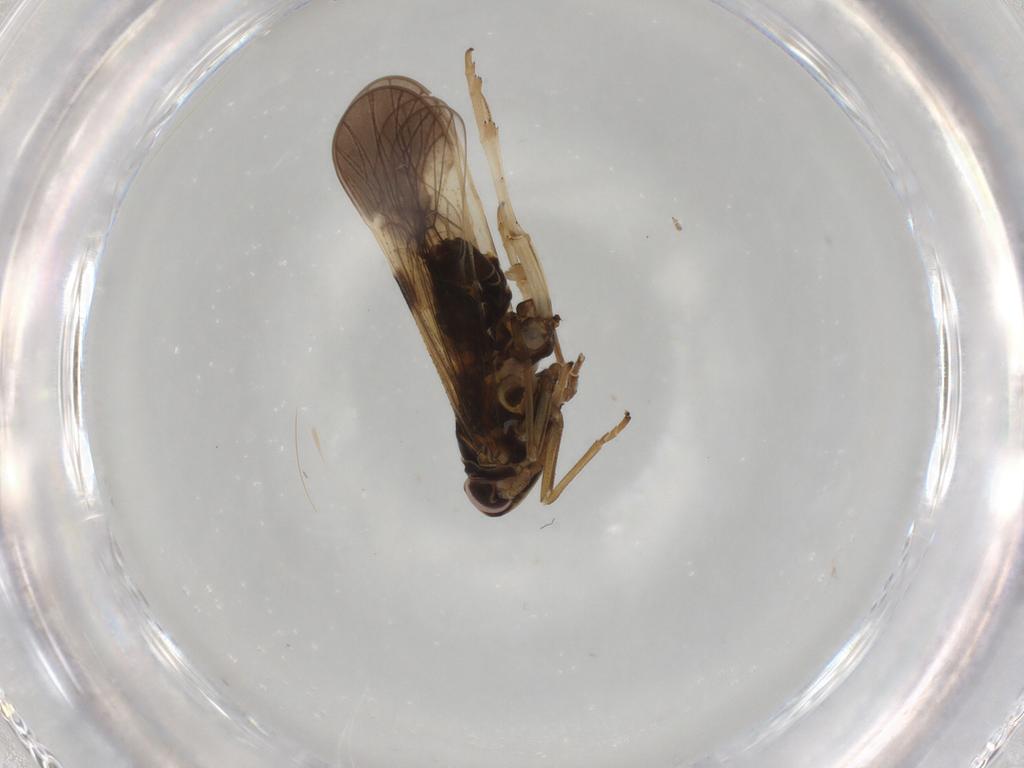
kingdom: Animalia
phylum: Arthropoda
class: Insecta
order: Hemiptera
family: Delphacidae
